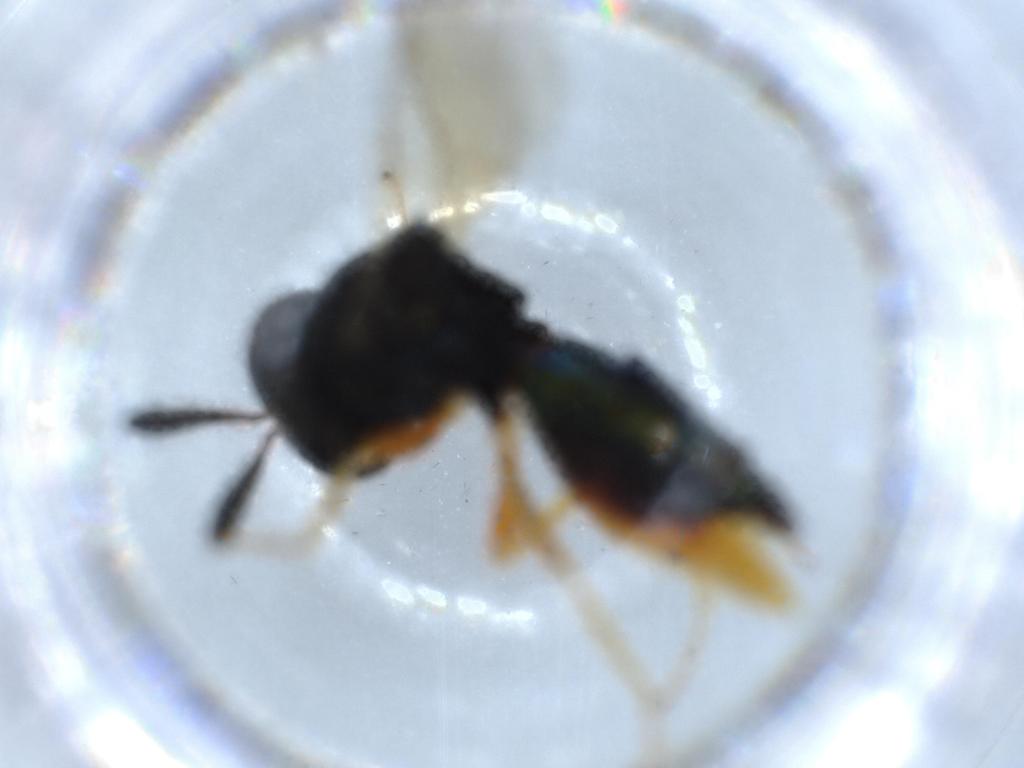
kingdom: Animalia
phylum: Arthropoda
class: Insecta
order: Hymenoptera
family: Pteromalidae
